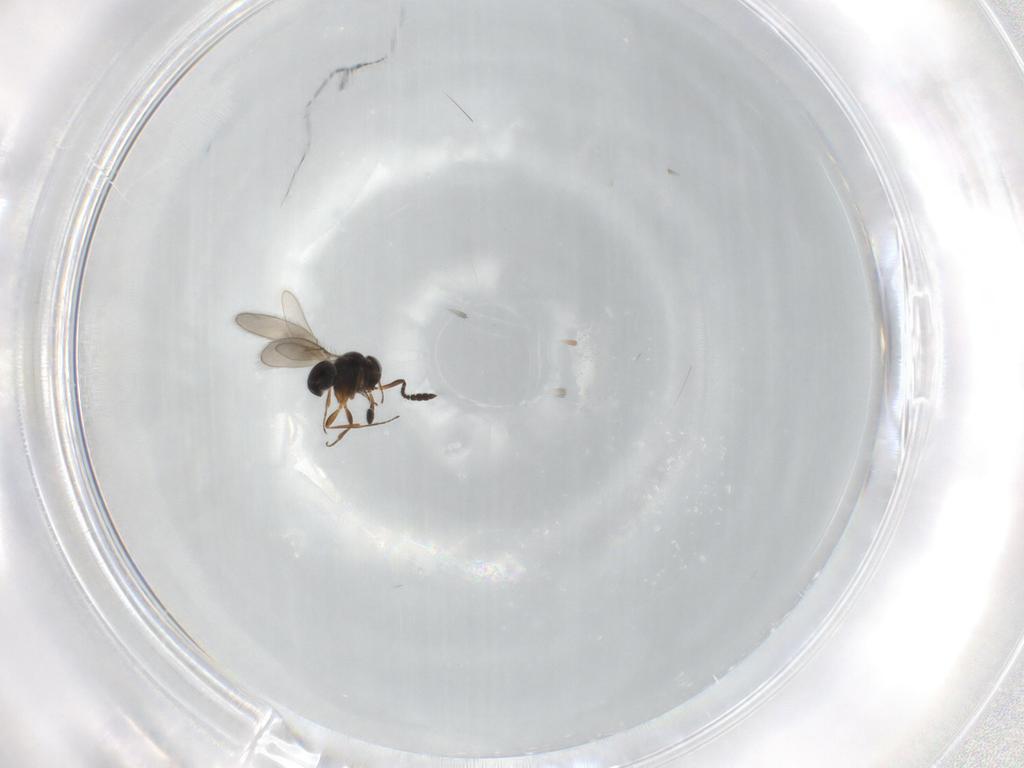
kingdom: Animalia
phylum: Arthropoda
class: Insecta
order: Hymenoptera
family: Scelionidae
